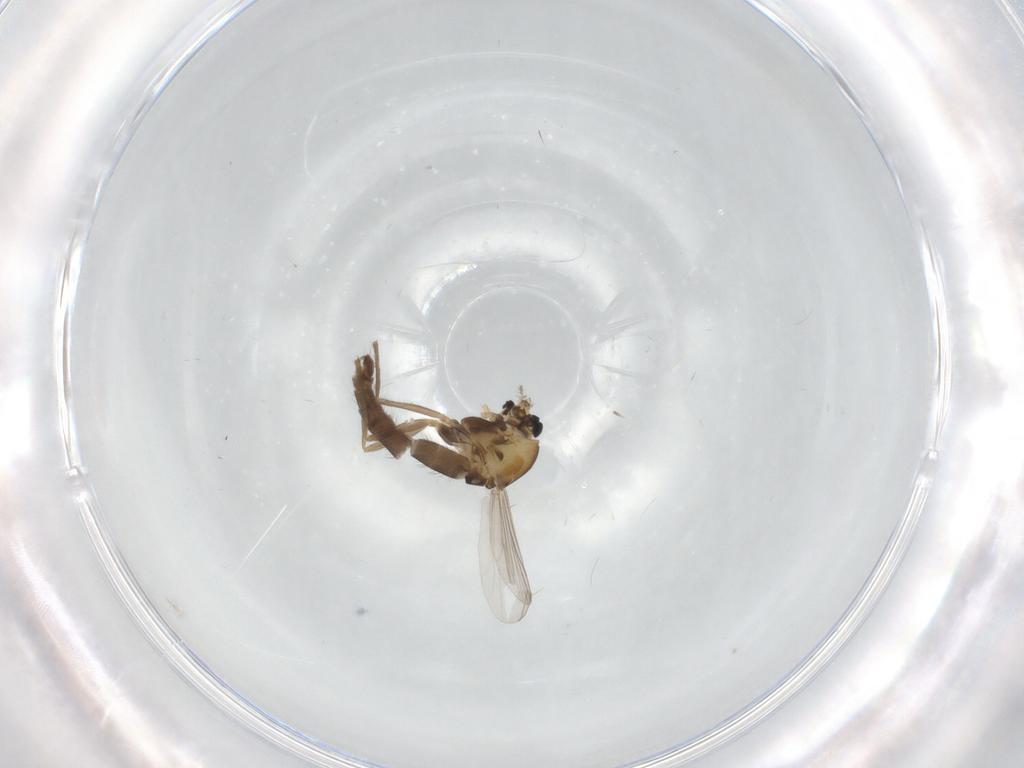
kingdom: Animalia
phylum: Arthropoda
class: Insecta
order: Diptera
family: Chironomidae
